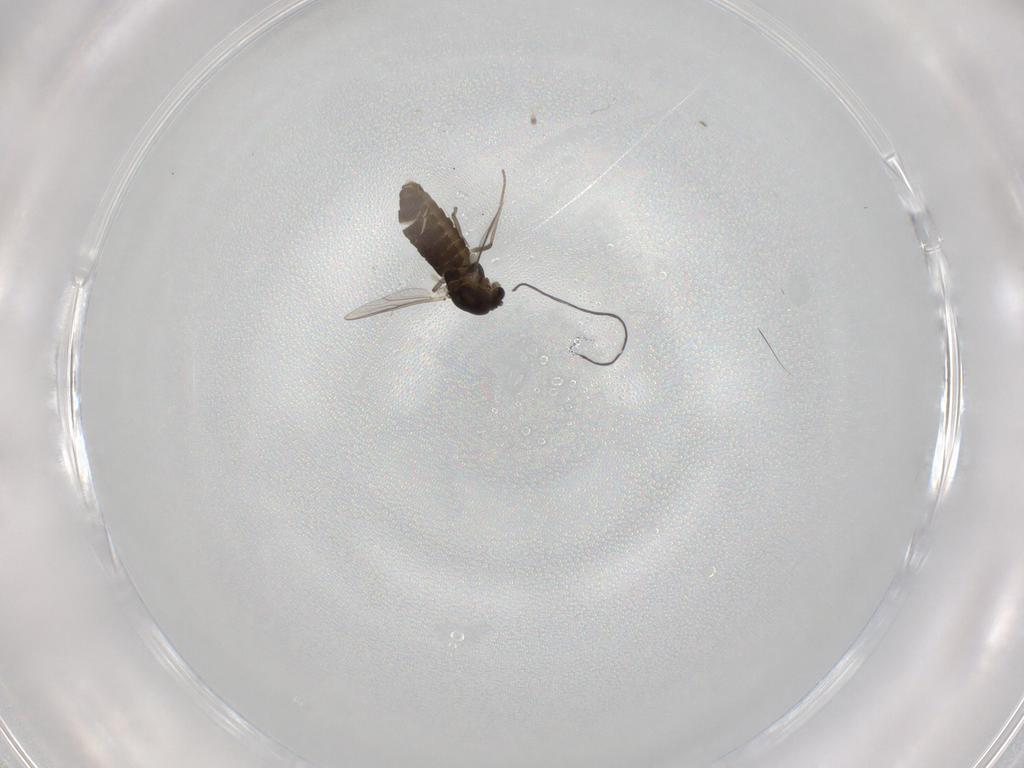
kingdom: Animalia
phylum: Arthropoda
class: Insecta
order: Diptera
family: Chironomidae
